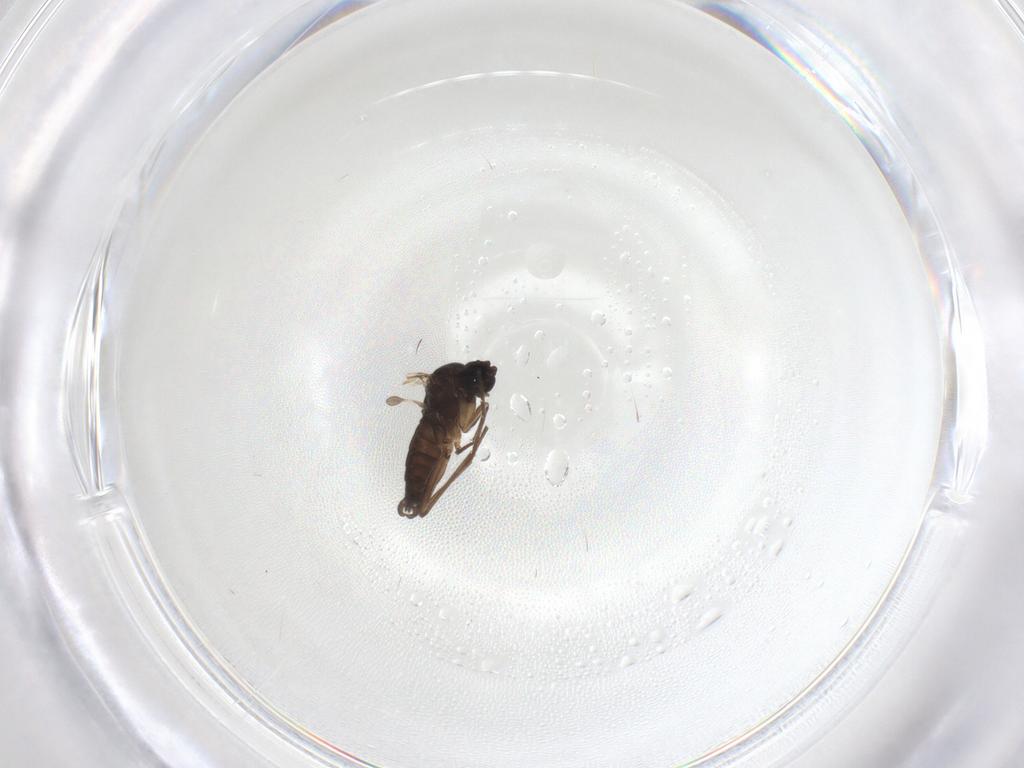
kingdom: Animalia
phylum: Arthropoda
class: Insecta
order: Diptera
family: Sciaridae
